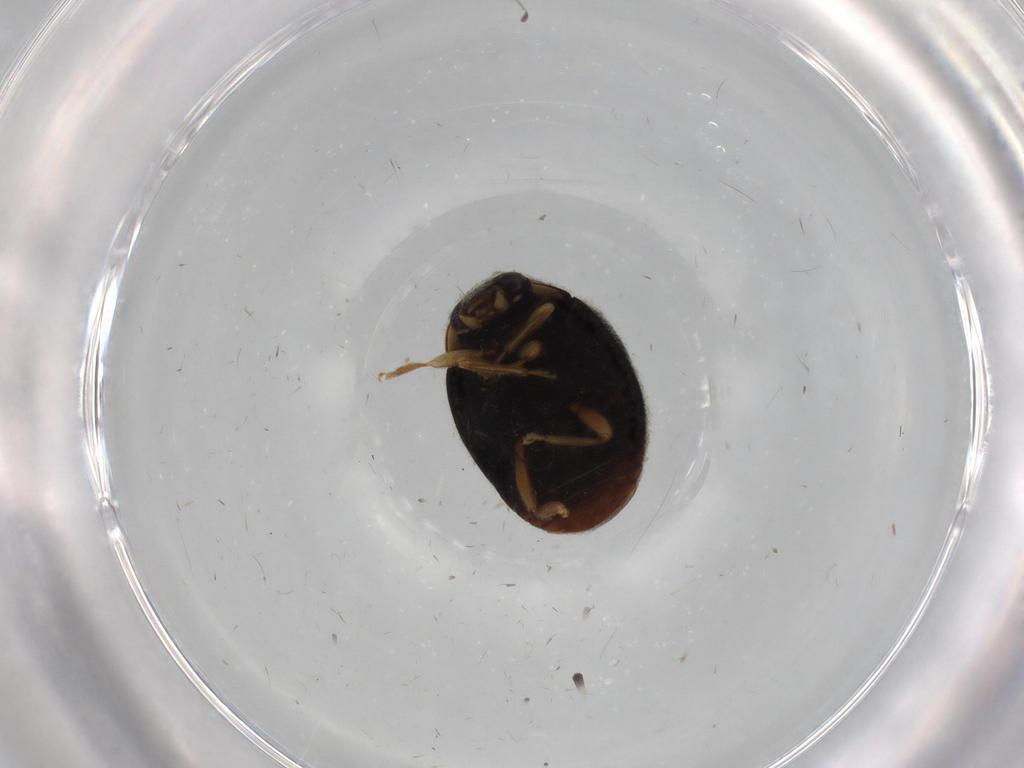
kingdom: Animalia
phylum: Arthropoda
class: Insecta
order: Coleoptera
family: Coccinellidae
